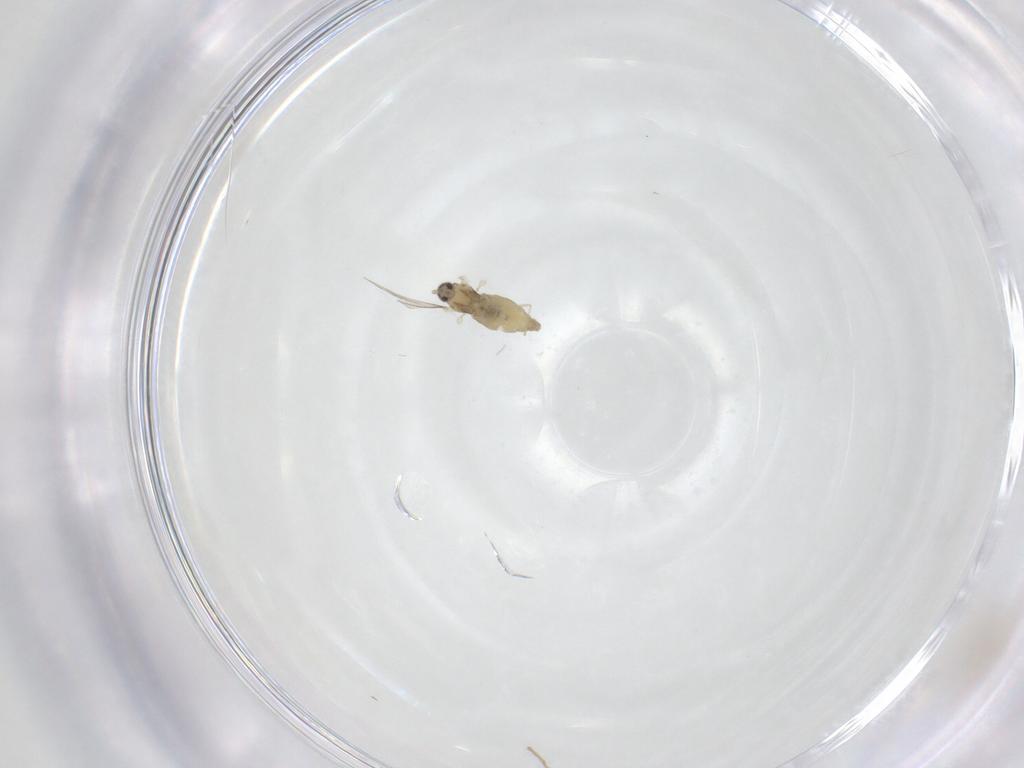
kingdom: Animalia
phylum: Arthropoda
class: Insecta
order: Diptera
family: Cecidomyiidae
